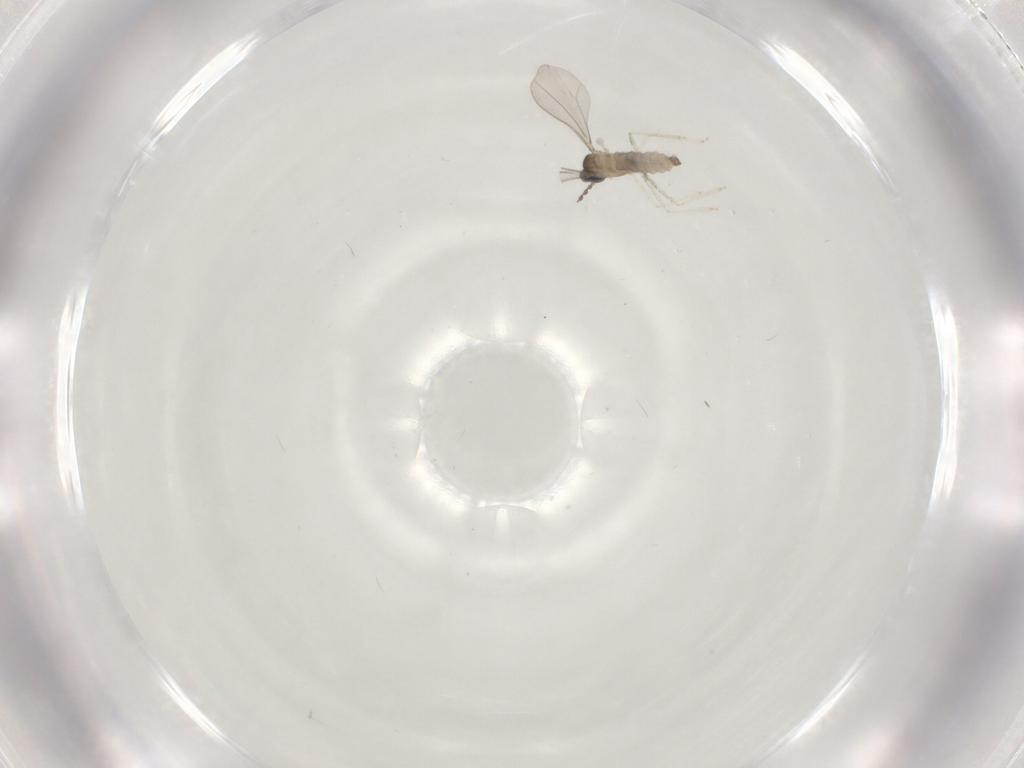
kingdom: Animalia
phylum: Arthropoda
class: Insecta
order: Diptera
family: Cecidomyiidae
